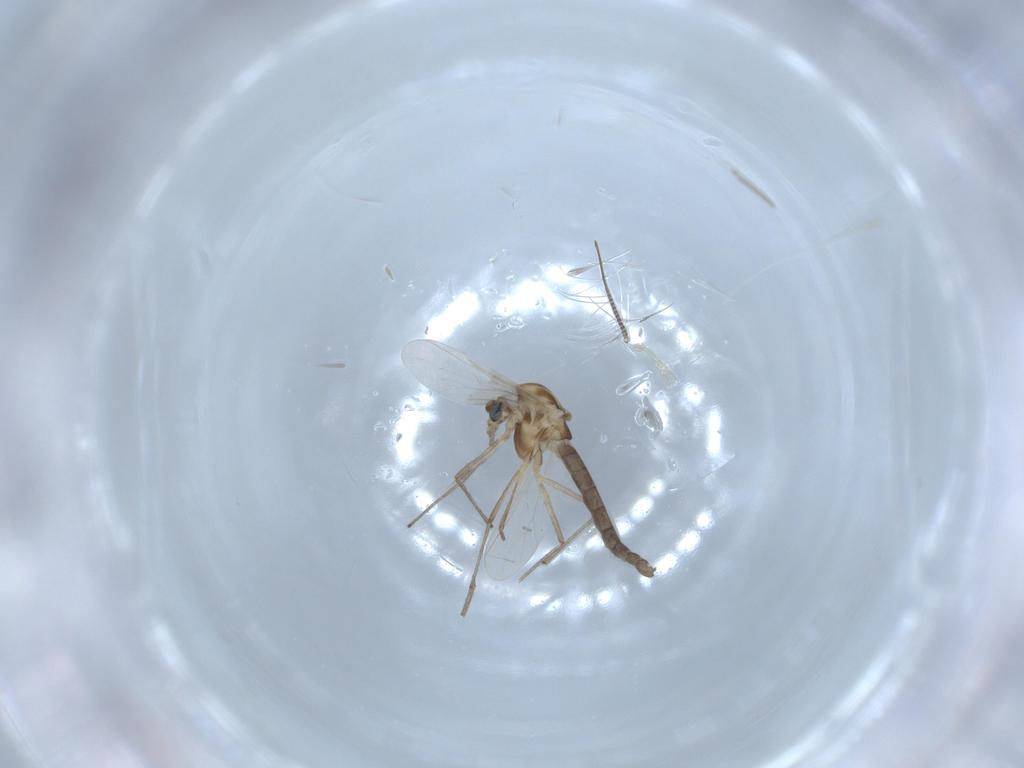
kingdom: Animalia
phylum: Arthropoda
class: Insecta
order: Diptera
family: Chironomidae
